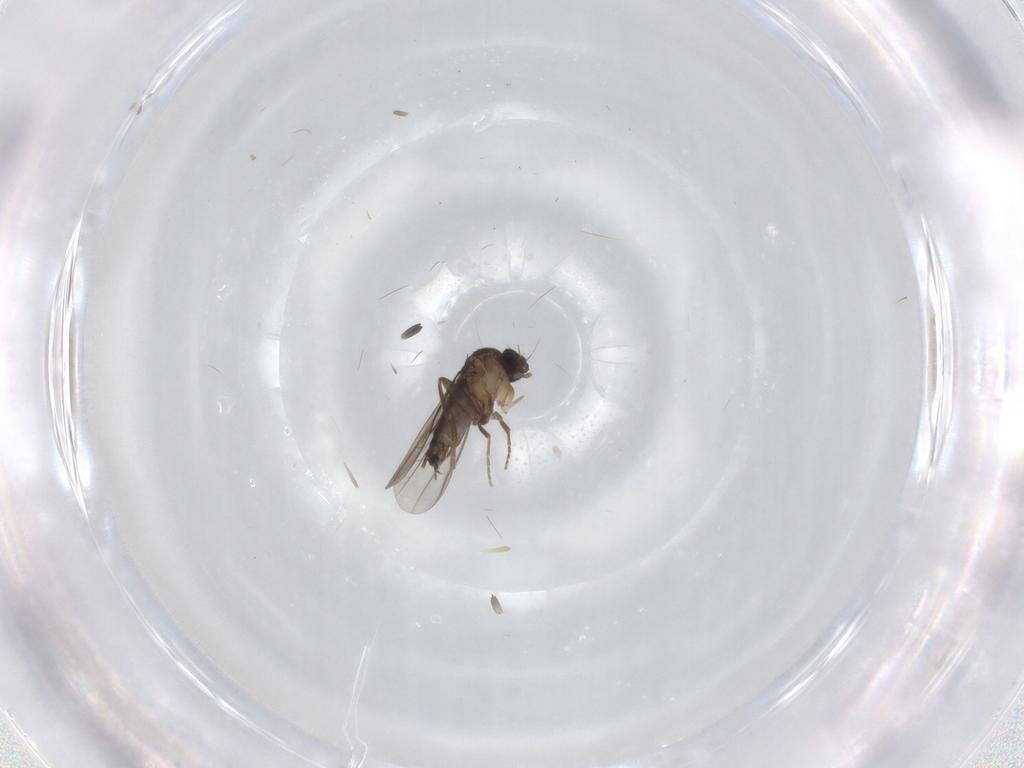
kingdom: Animalia
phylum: Arthropoda
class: Insecta
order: Diptera
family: Phoridae
